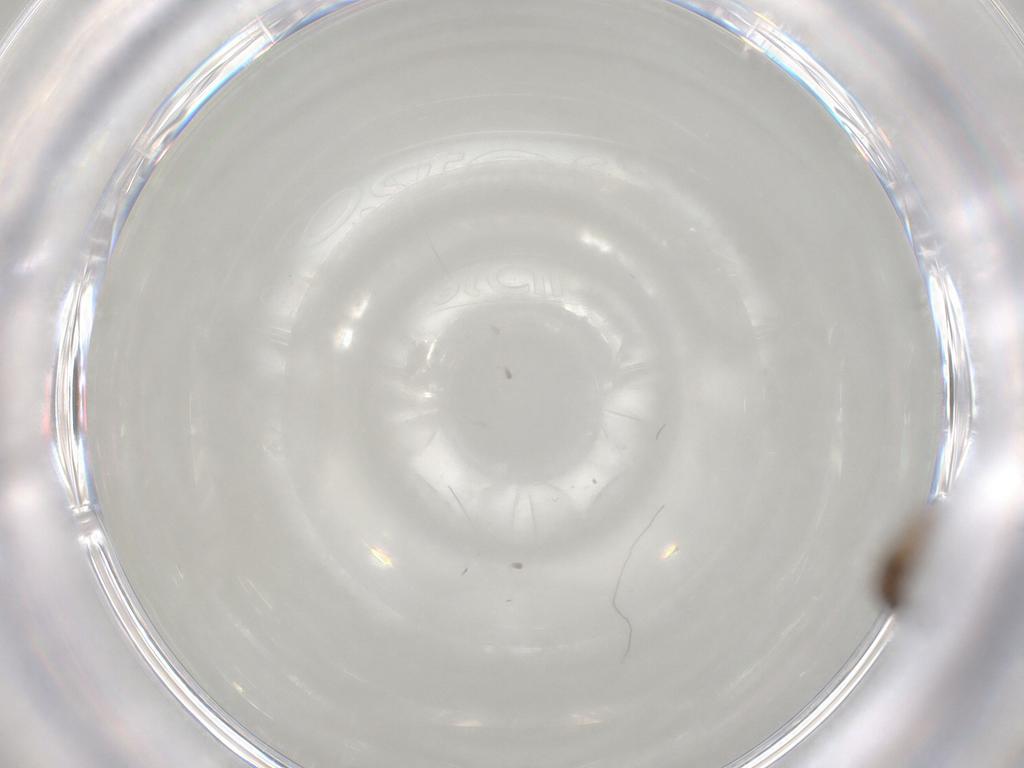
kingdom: Animalia
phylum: Arthropoda
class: Insecta
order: Diptera
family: Ceratopogonidae
